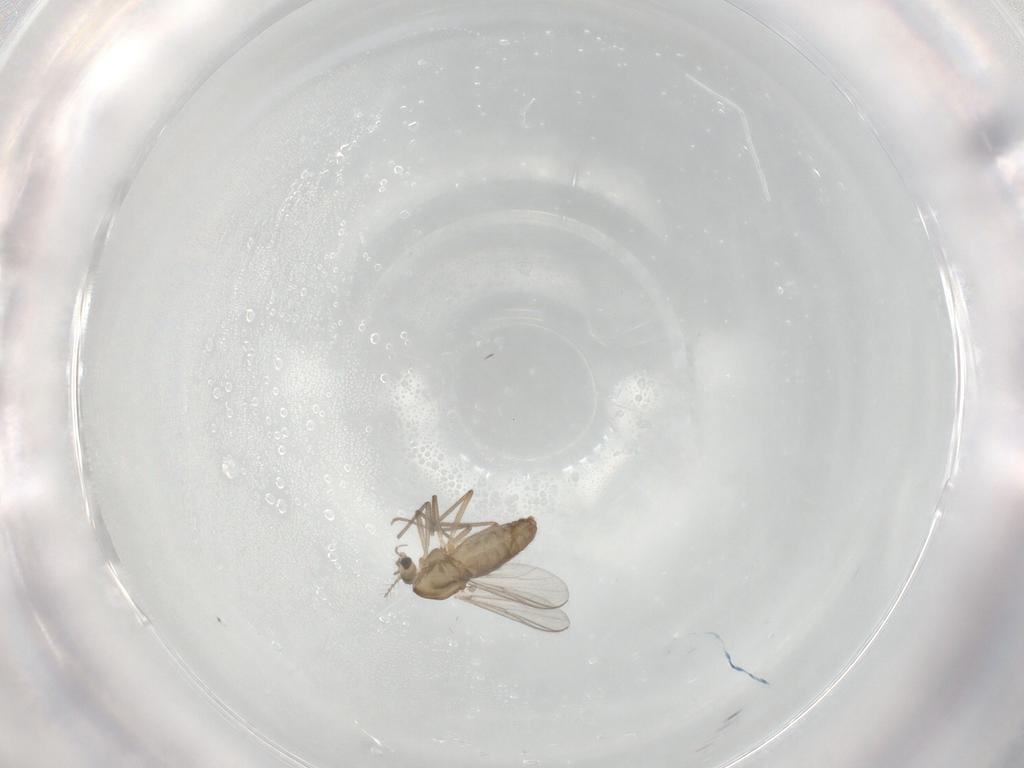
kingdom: Animalia
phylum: Arthropoda
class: Insecta
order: Diptera
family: Chironomidae
